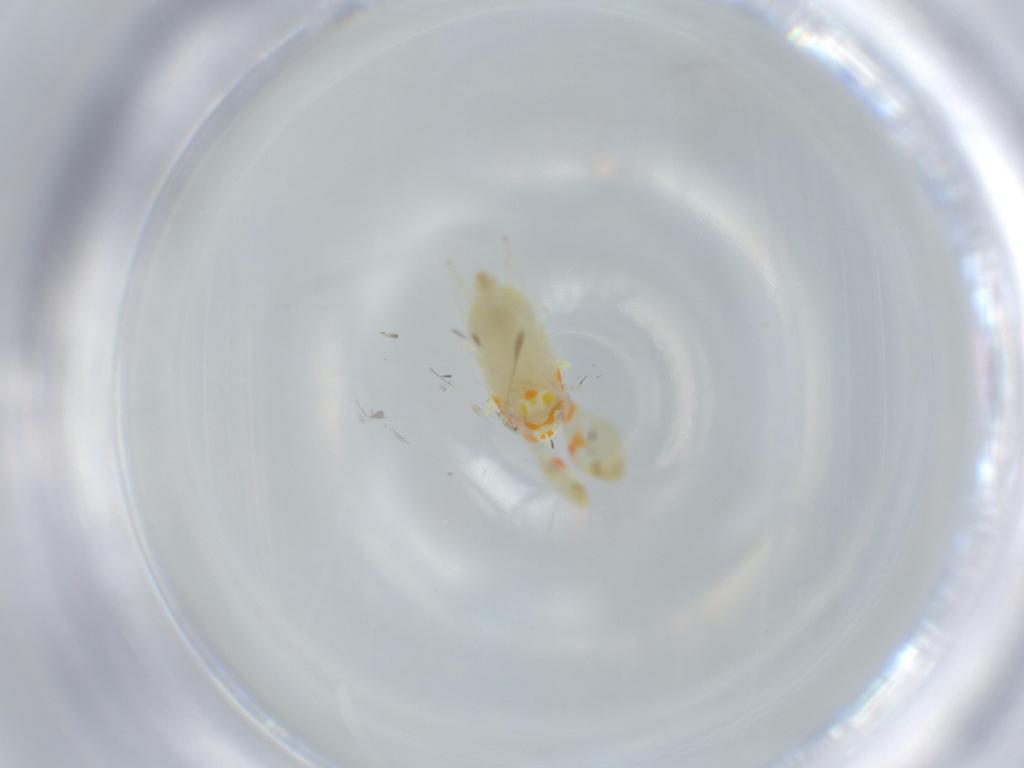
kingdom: Animalia
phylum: Arthropoda
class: Insecta
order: Hemiptera
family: Cicadellidae
